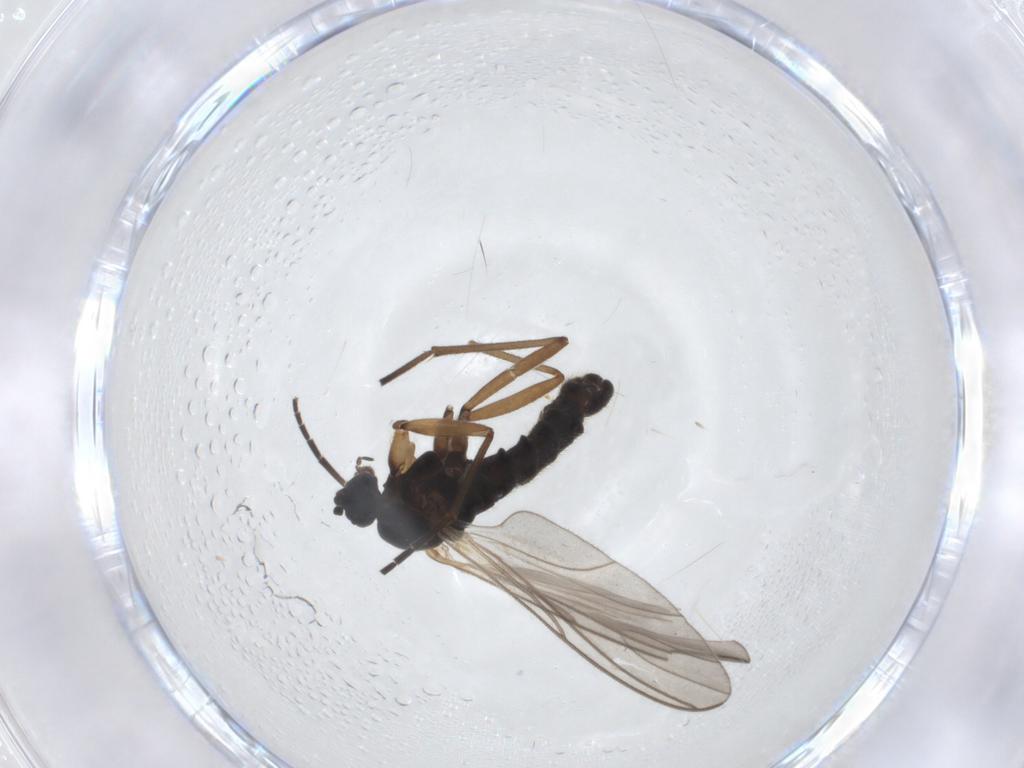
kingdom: Animalia
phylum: Arthropoda
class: Insecta
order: Diptera
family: Sciaridae
